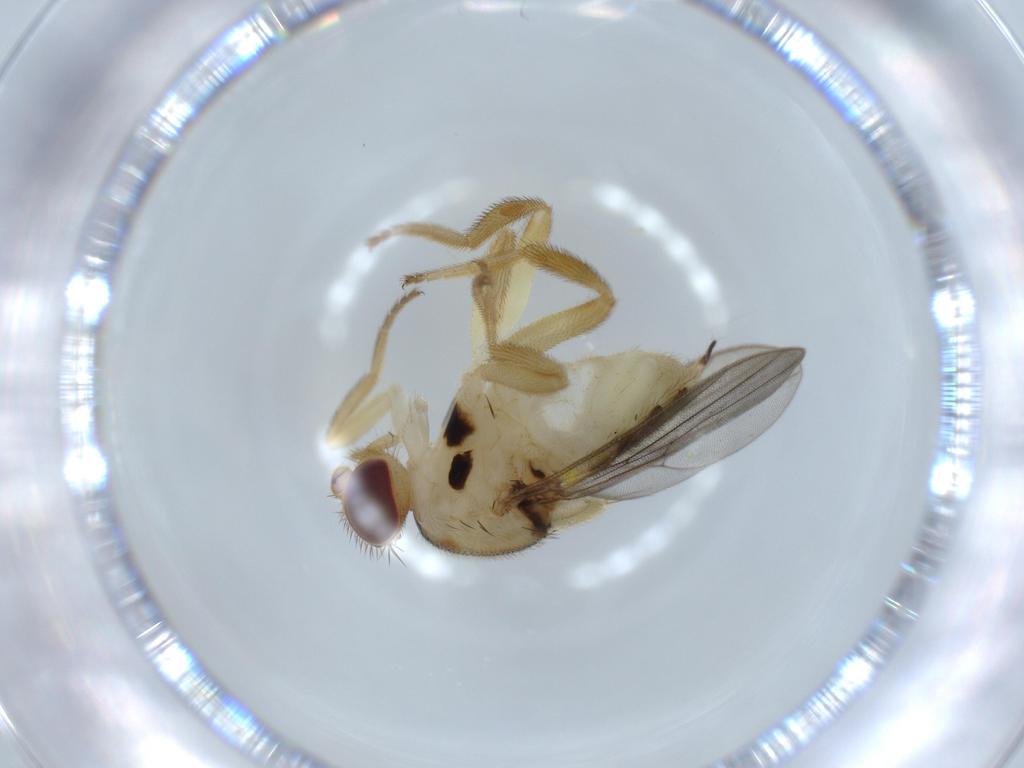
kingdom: Animalia
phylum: Arthropoda
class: Insecta
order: Diptera
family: Chloropidae
